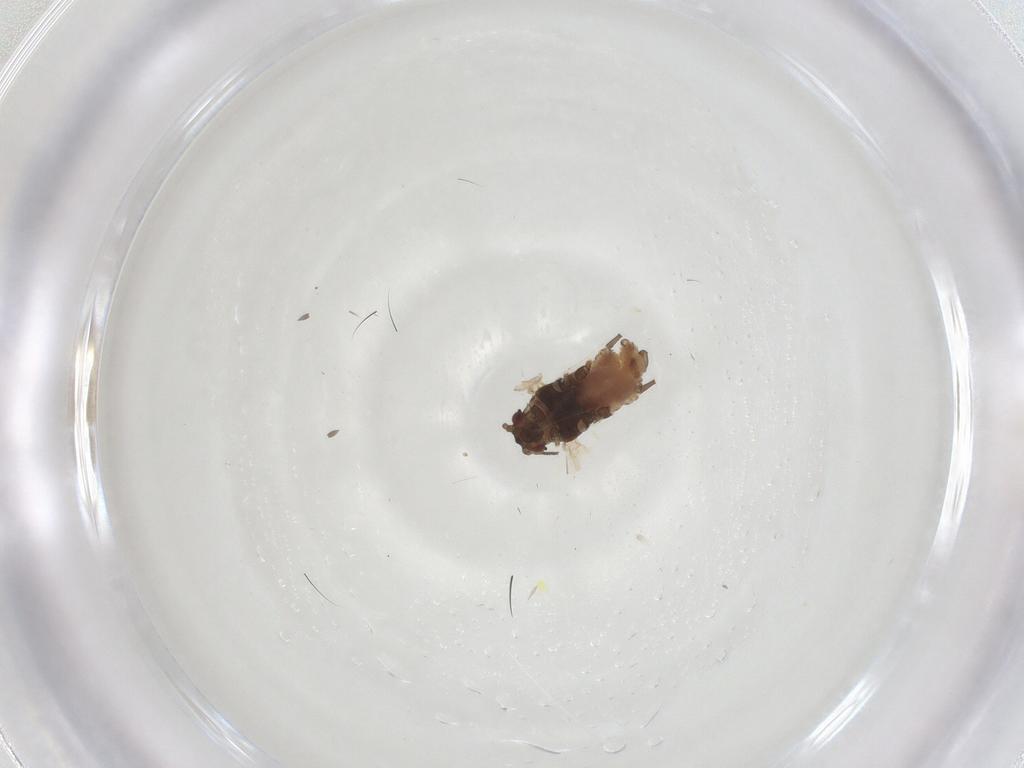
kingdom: Animalia
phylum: Arthropoda
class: Insecta
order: Hemiptera
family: Aphididae
